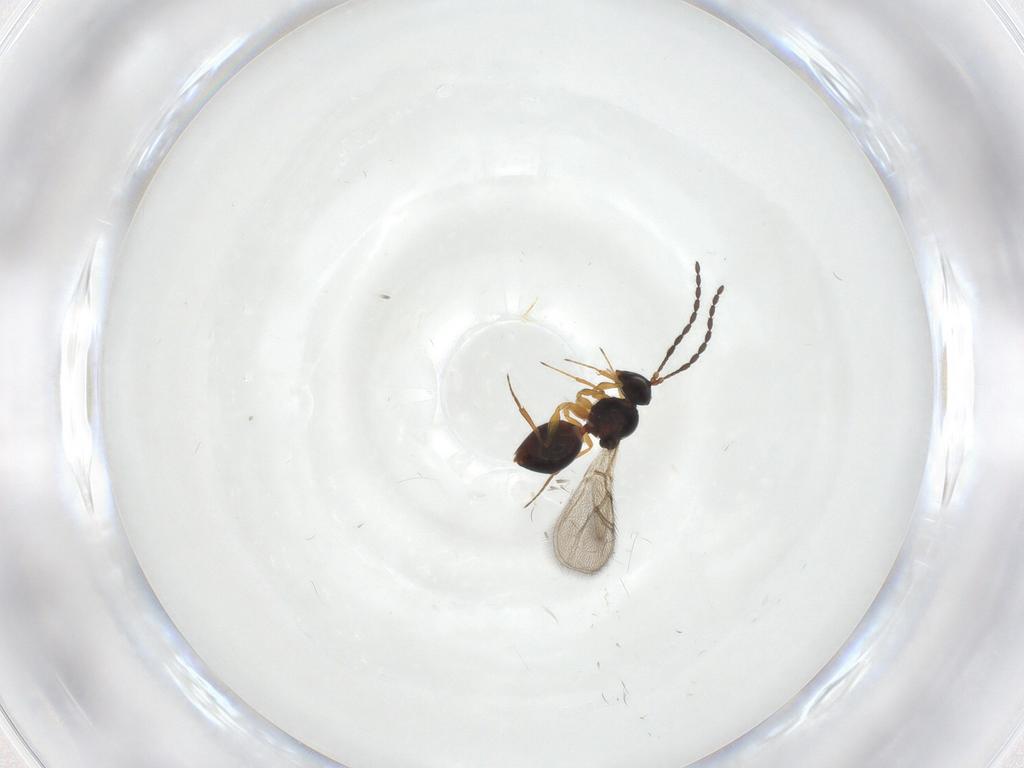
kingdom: Animalia
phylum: Arthropoda
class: Insecta
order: Hymenoptera
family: Figitidae
